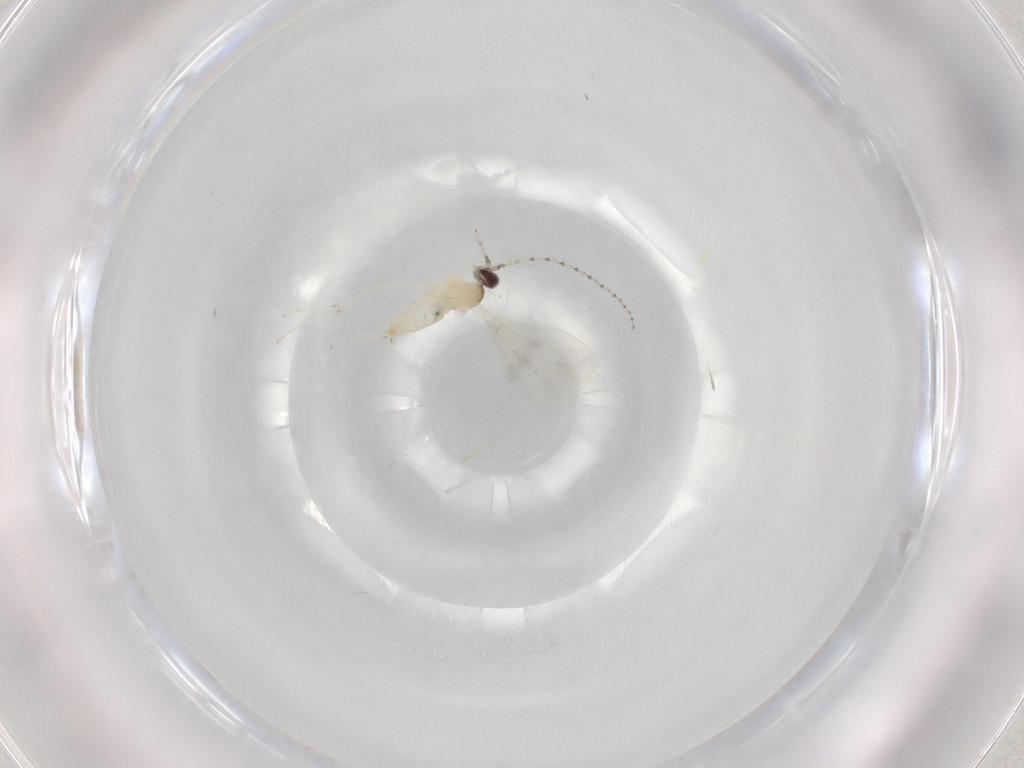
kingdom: Animalia
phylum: Arthropoda
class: Insecta
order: Diptera
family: Cecidomyiidae
